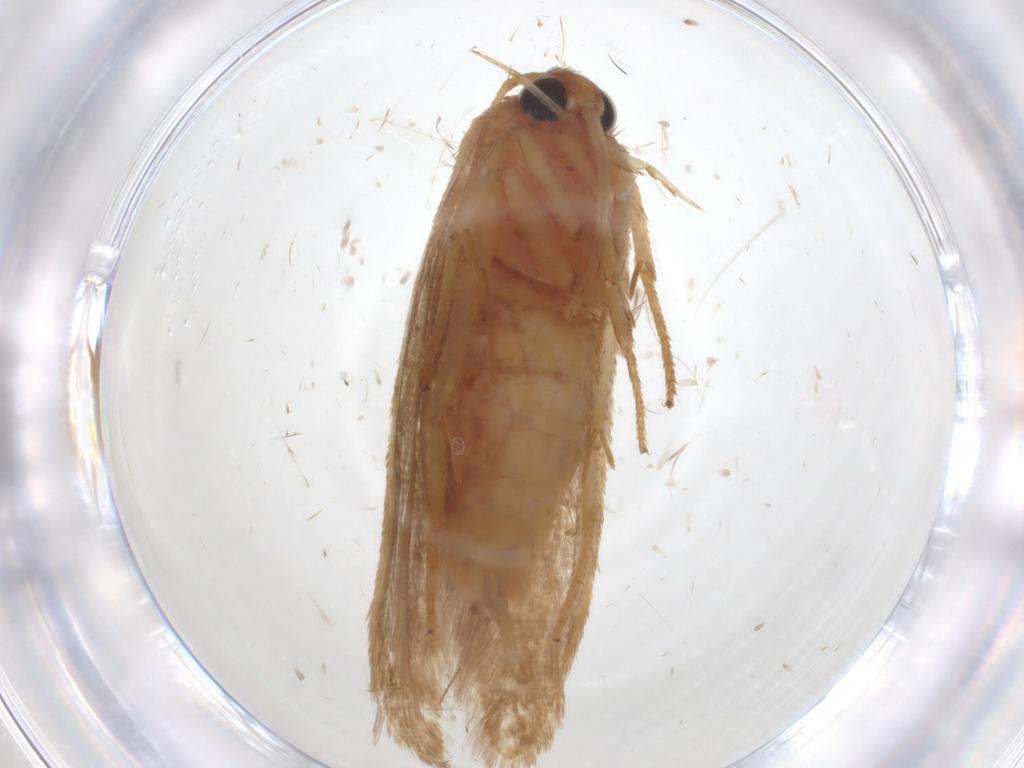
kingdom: Animalia
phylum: Arthropoda
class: Insecta
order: Lepidoptera
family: Blastobasidae
